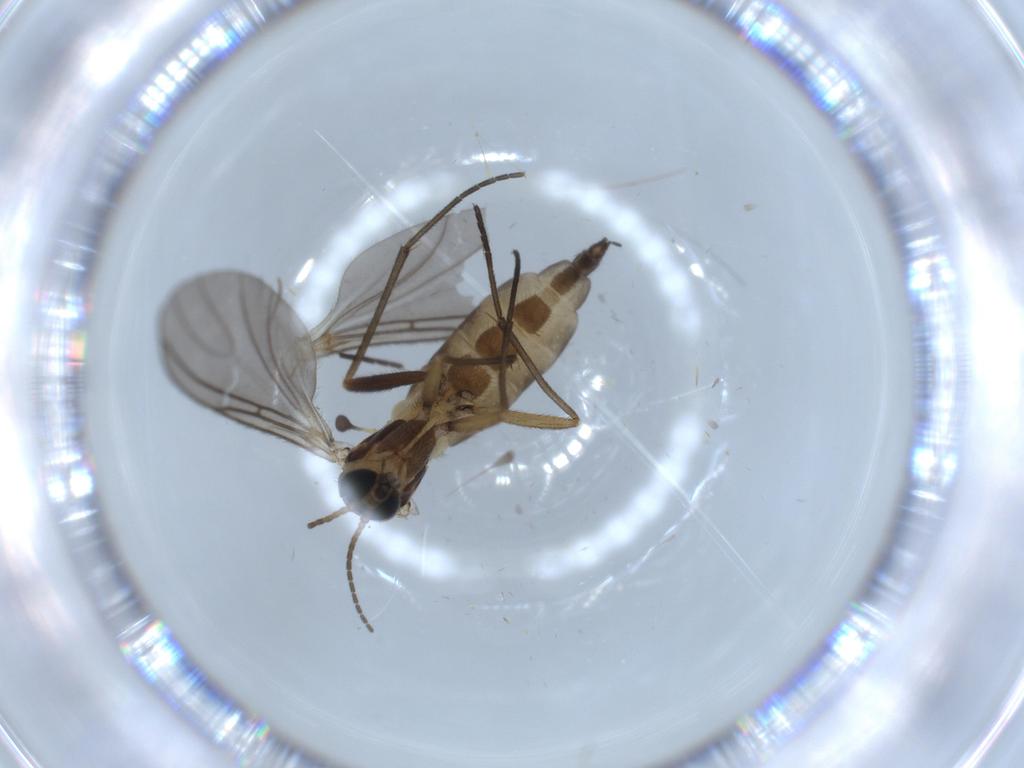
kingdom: Animalia
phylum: Arthropoda
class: Insecta
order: Diptera
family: Sciaridae
